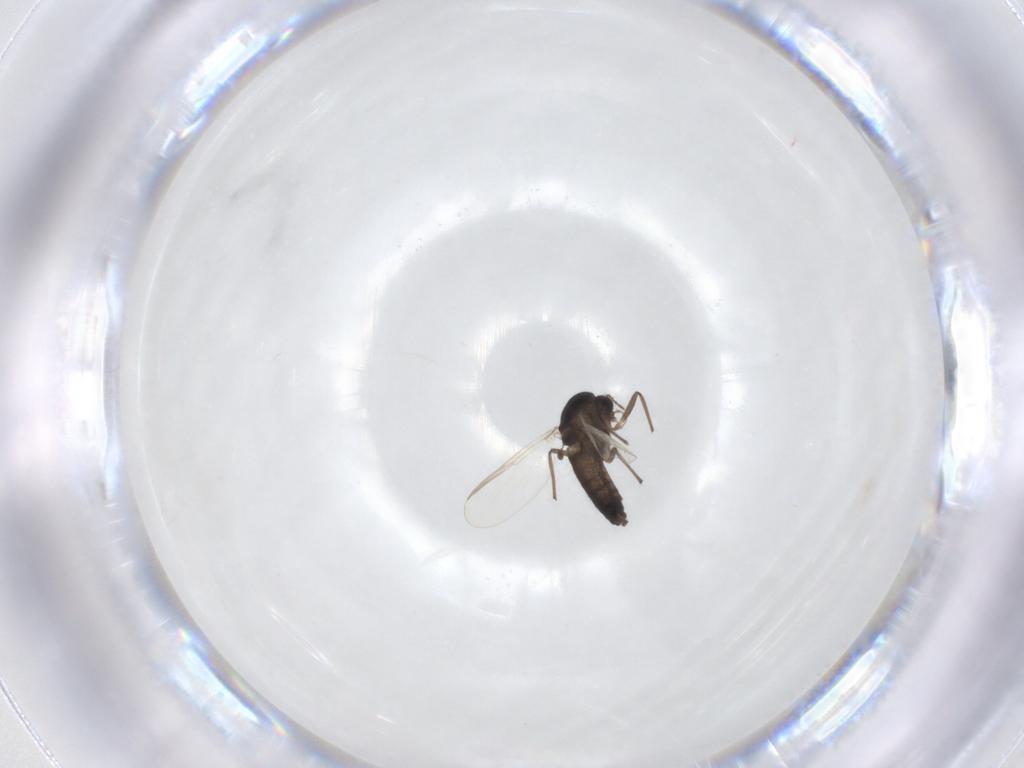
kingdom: Animalia
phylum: Arthropoda
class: Insecta
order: Diptera
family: Chironomidae
